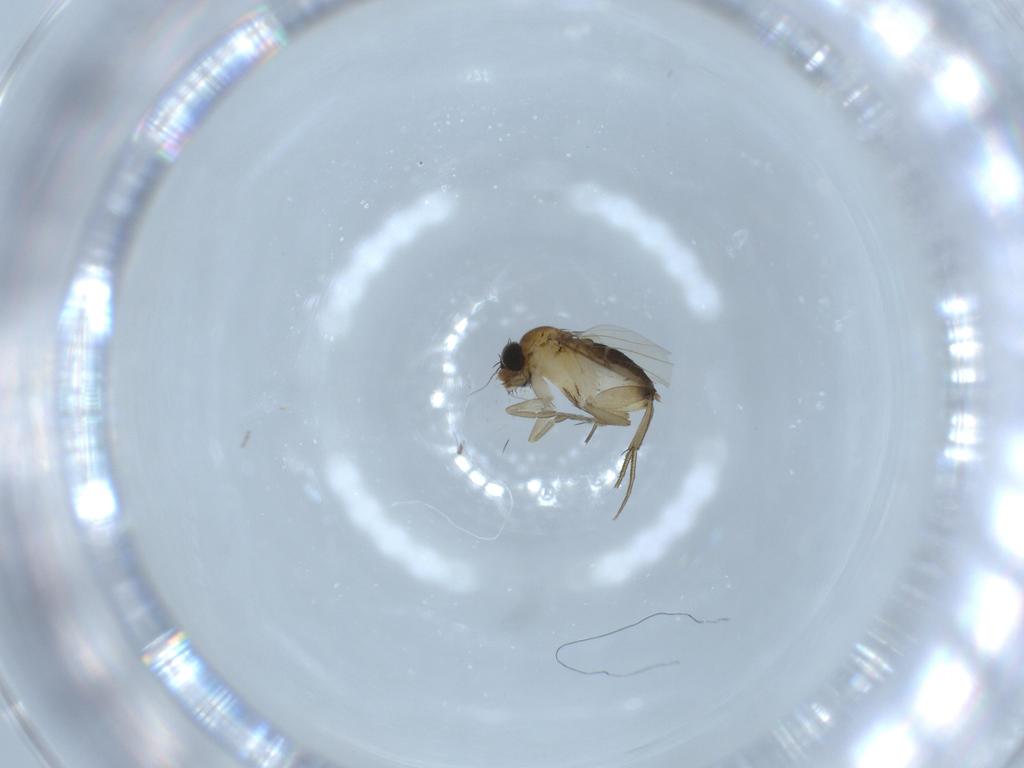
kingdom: Animalia
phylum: Arthropoda
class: Insecta
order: Diptera
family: Phoridae
